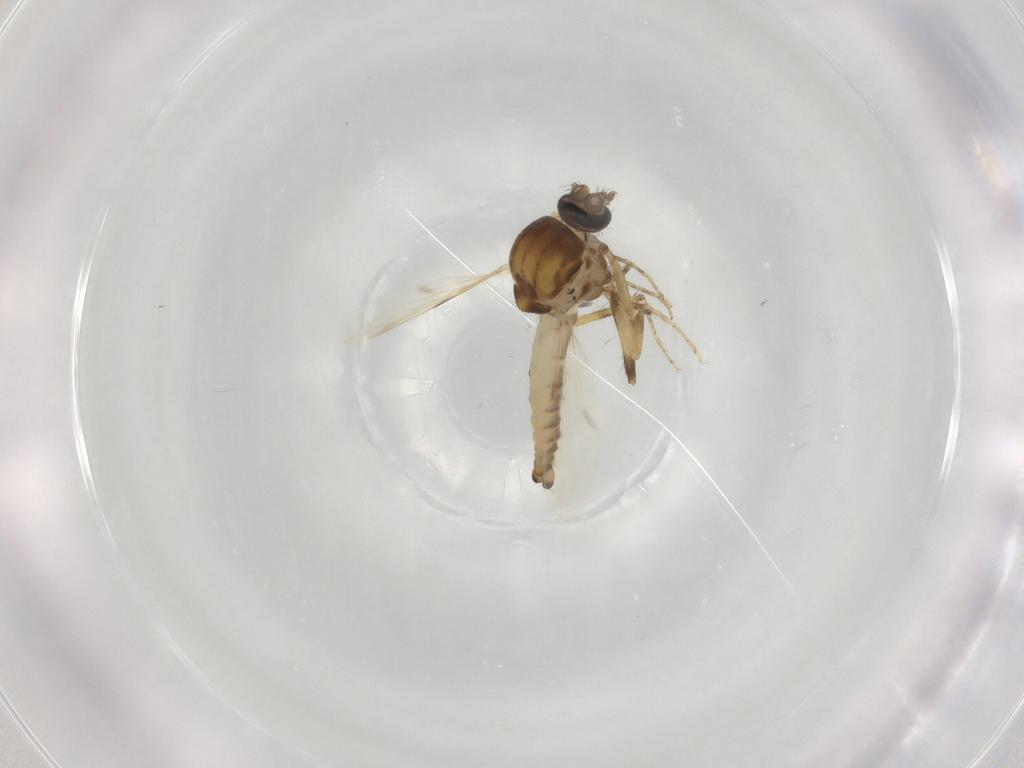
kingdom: Animalia
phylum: Arthropoda
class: Insecta
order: Diptera
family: Ceratopogonidae
